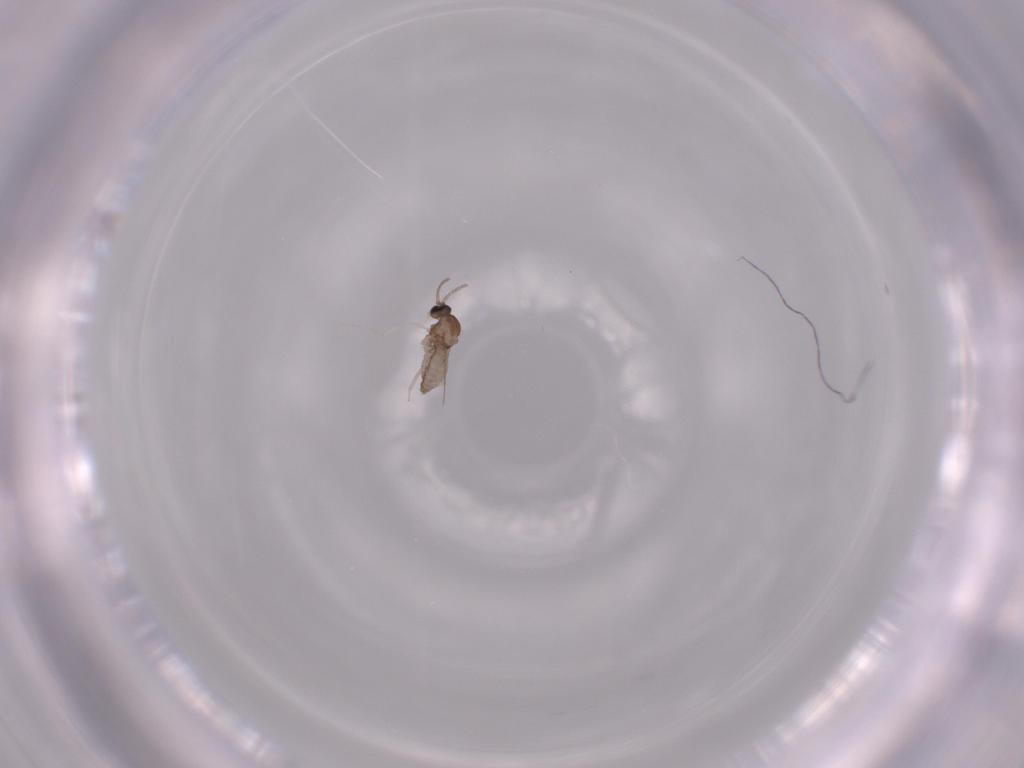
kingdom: Animalia
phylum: Arthropoda
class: Insecta
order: Diptera
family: Cecidomyiidae
